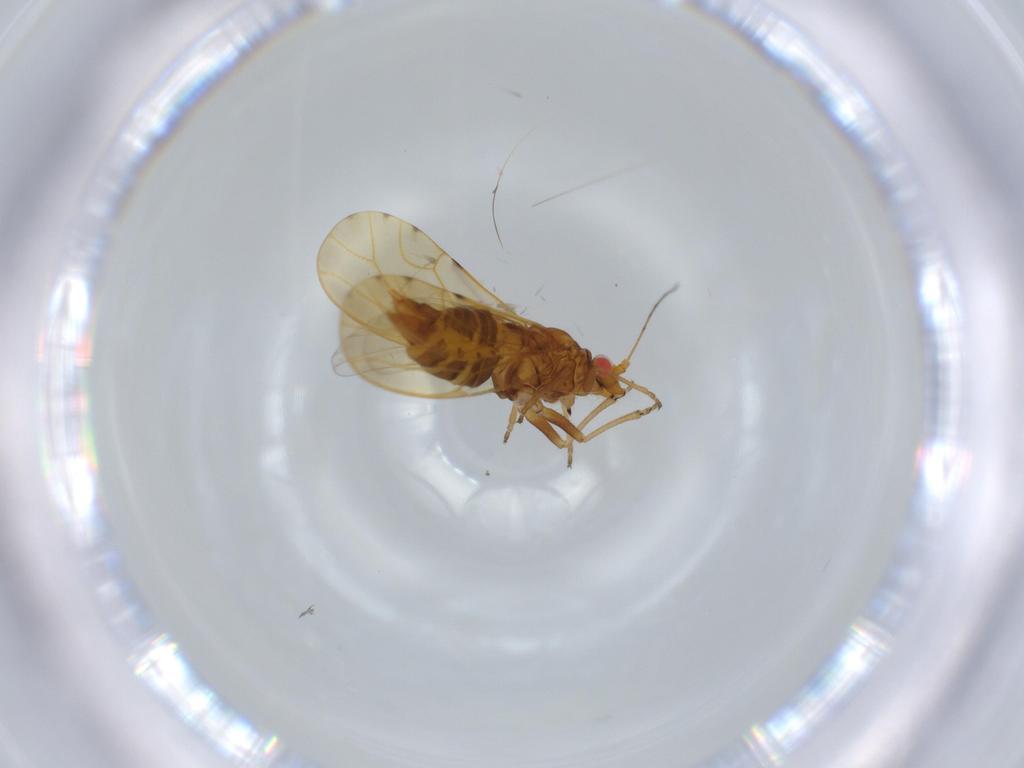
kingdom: Animalia
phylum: Arthropoda
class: Insecta
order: Hemiptera
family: Psylloidea_incertae_sedis
